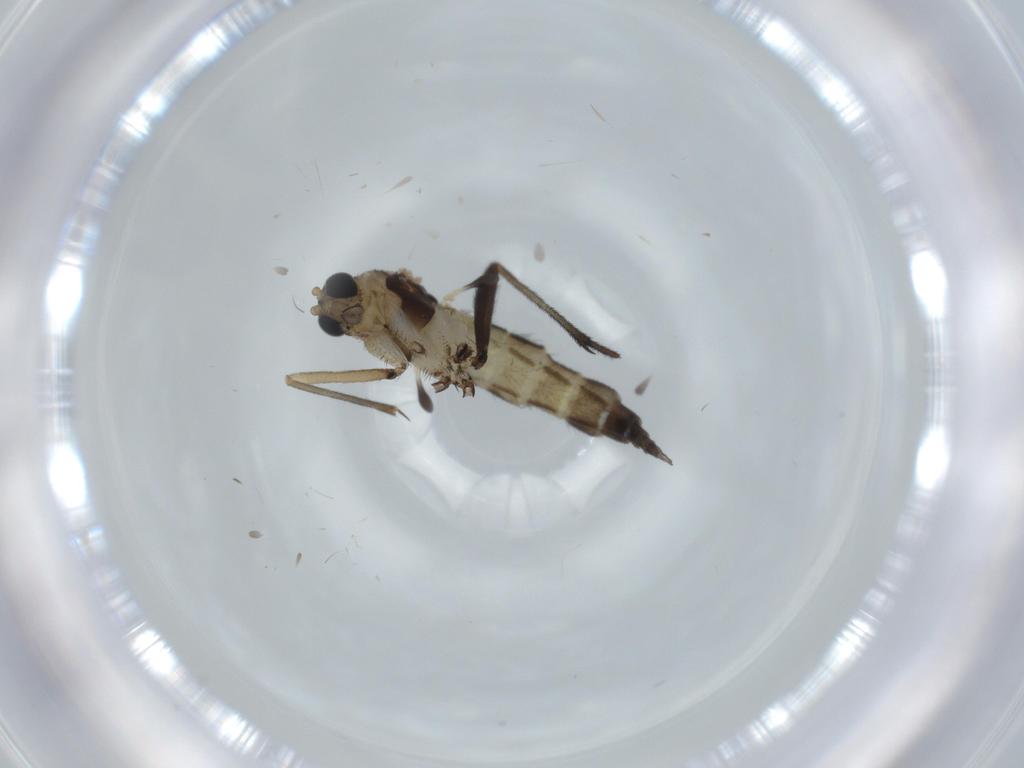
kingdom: Animalia
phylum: Arthropoda
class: Insecta
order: Diptera
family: Sciaridae
